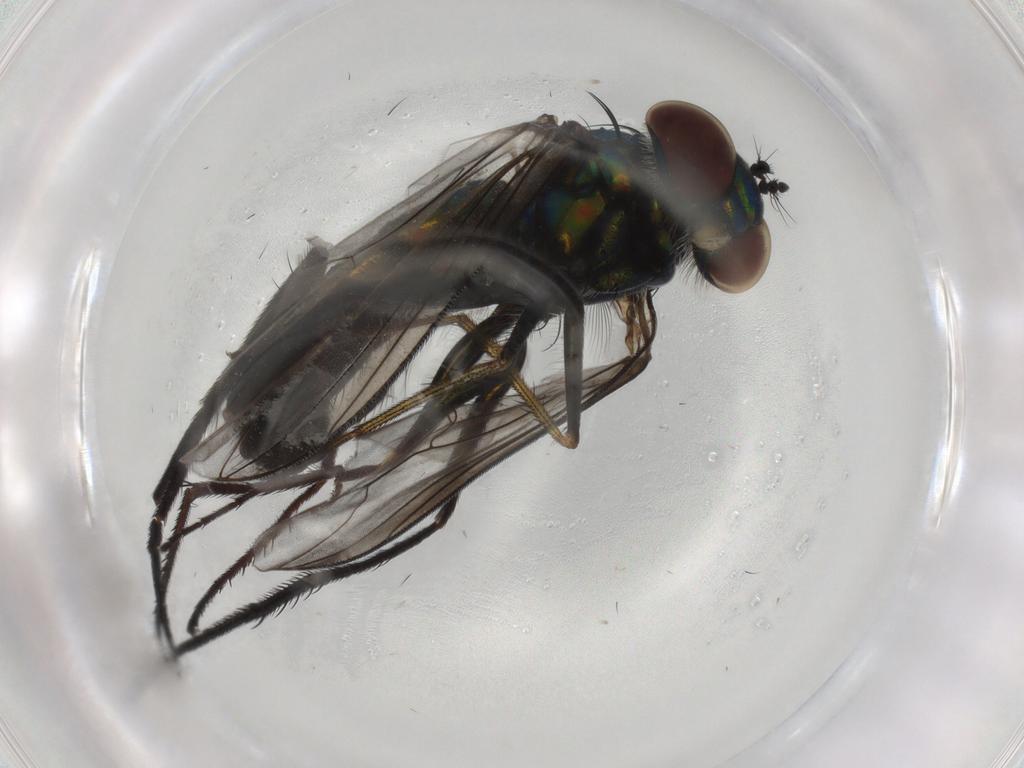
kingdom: Animalia
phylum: Arthropoda
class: Insecta
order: Diptera
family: Dolichopodidae
